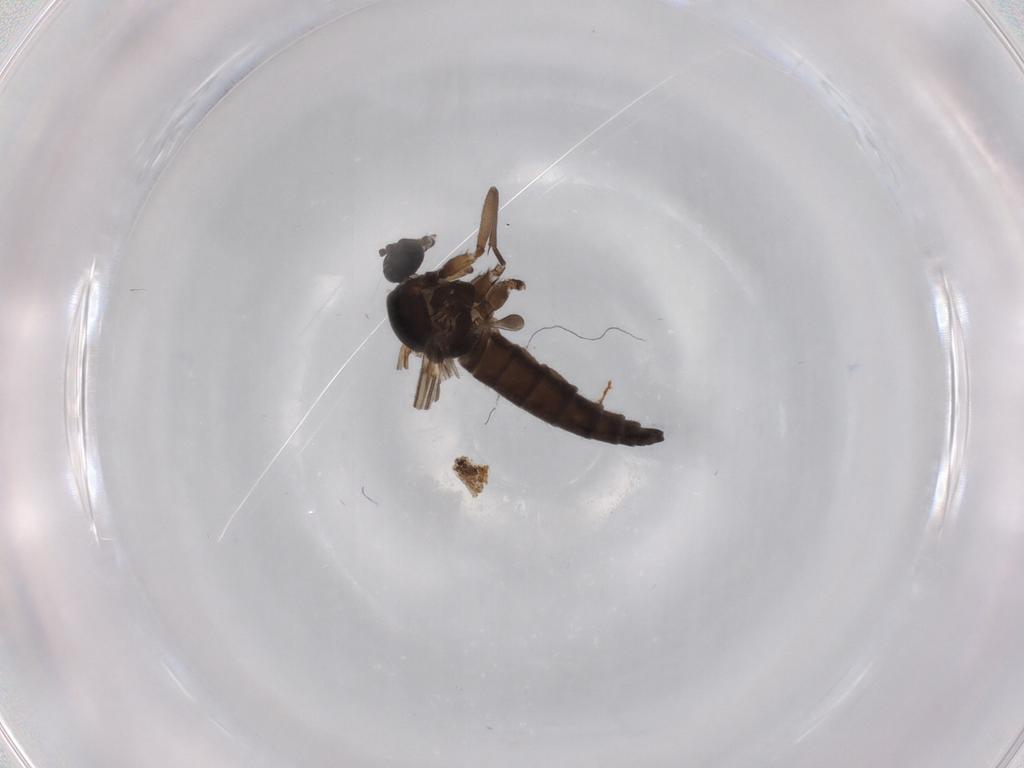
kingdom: Animalia
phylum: Arthropoda
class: Insecta
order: Diptera
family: Sciaridae
